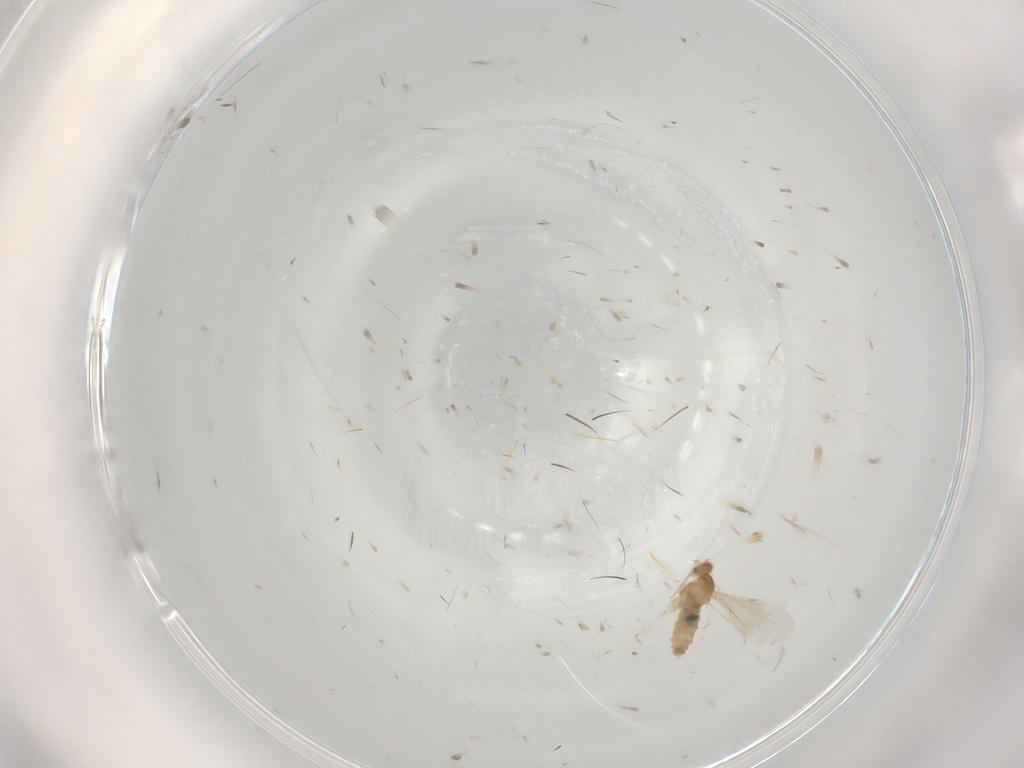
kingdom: Animalia
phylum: Arthropoda
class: Insecta
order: Diptera
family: Cecidomyiidae
